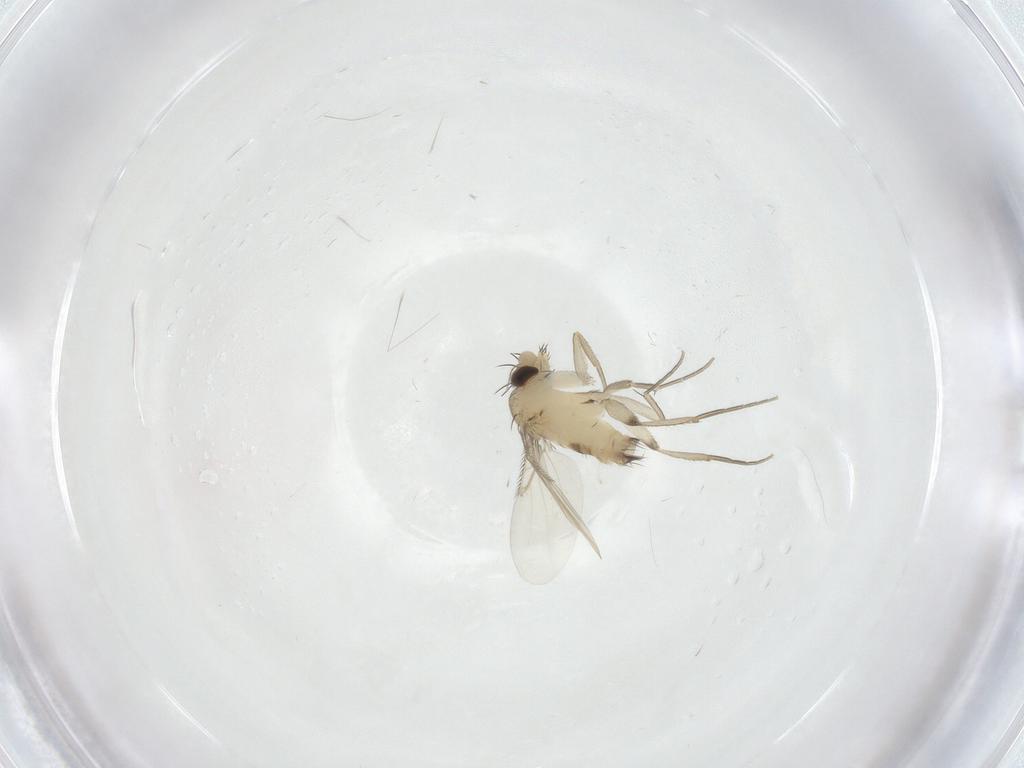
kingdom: Animalia
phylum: Arthropoda
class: Insecta
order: Diptera
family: Phoridae
